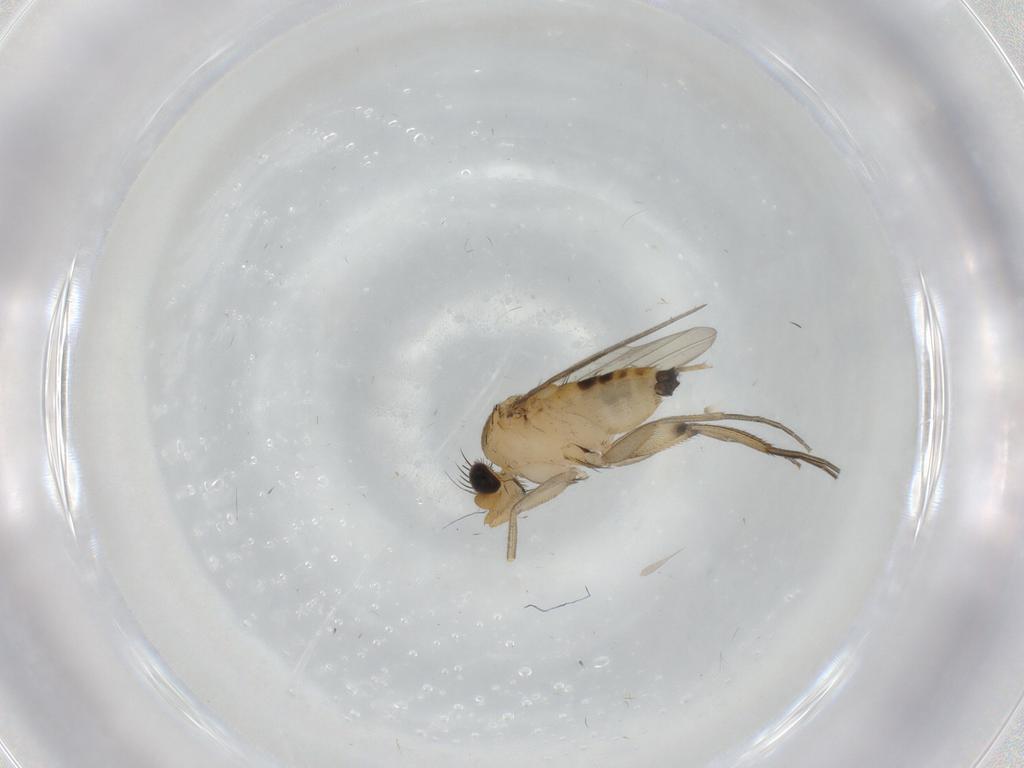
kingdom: Animalia
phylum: Arthropoda
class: Insecta
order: Diptera
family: Phoridae
